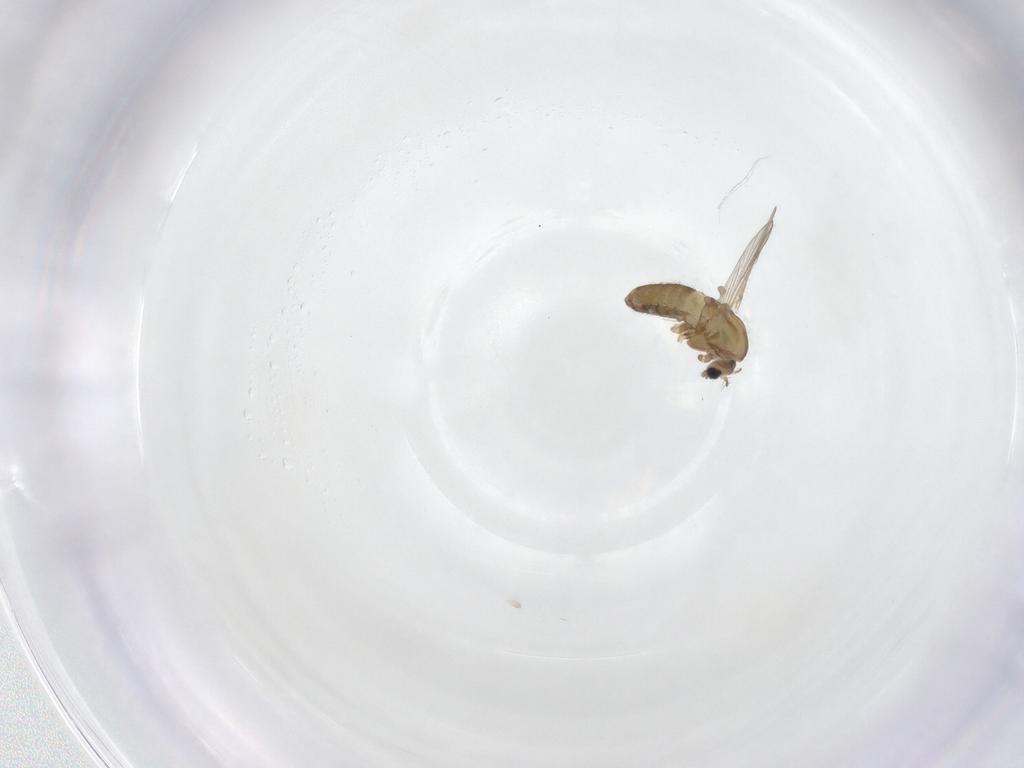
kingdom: Animalia
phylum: Arthropoda
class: Insecta
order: Diptera
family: Chironomidae
